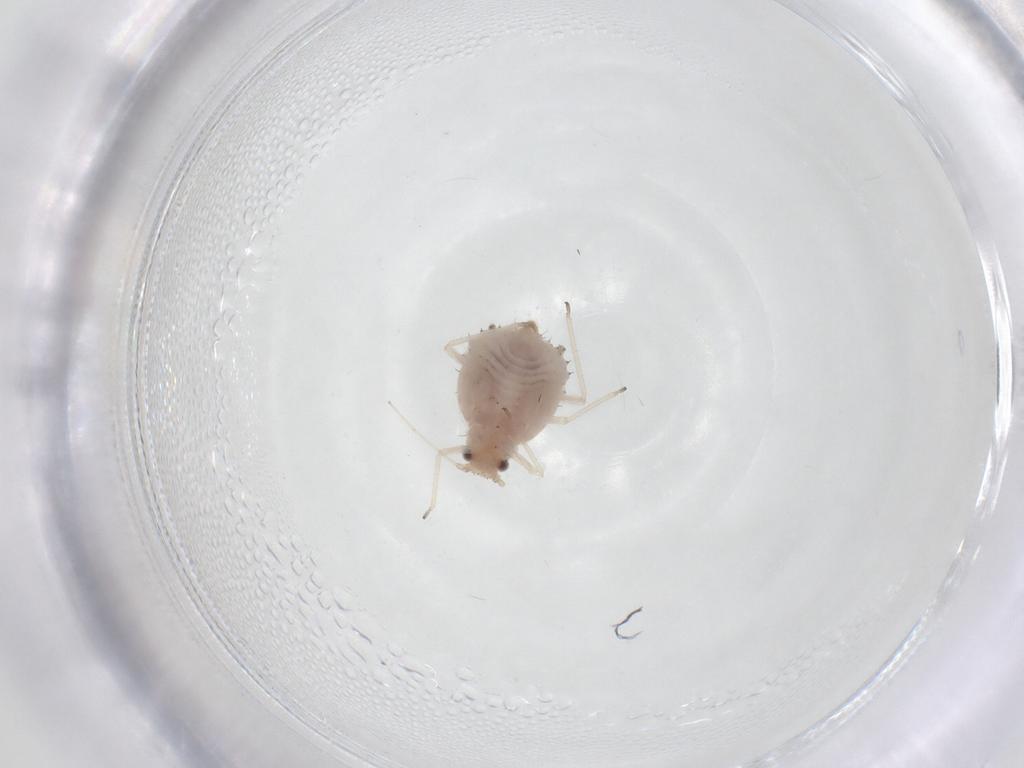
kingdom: Animalia
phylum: Arthropoda
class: Insecta
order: Hemiptera
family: Aphididae
